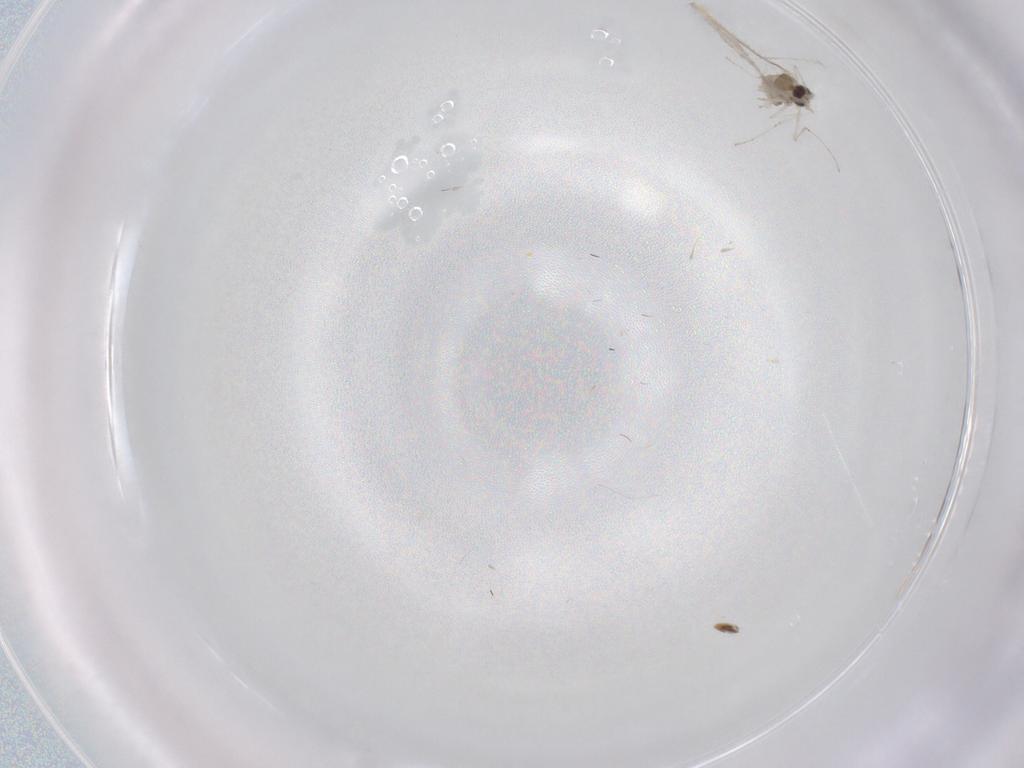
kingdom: Animalia
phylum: Arthropoda
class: Insecta
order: Diptera
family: Cecidomyiidae
